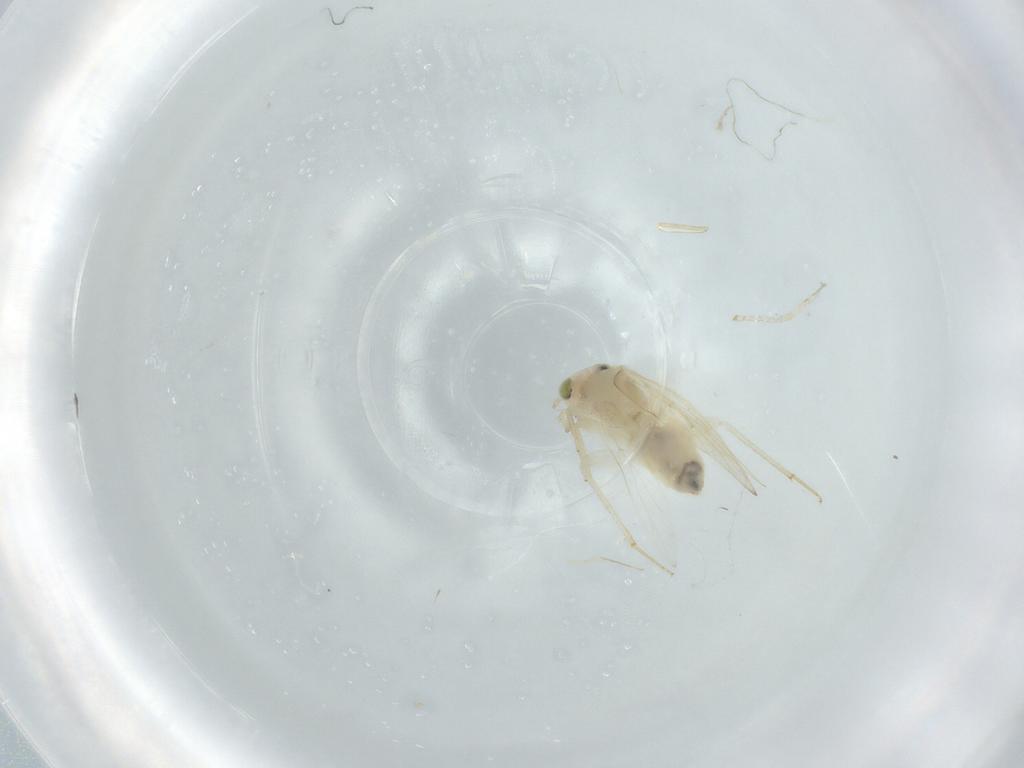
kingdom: Animalia
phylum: Arthropoda
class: Insecta
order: Psocodea
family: Lepidopsocidae
